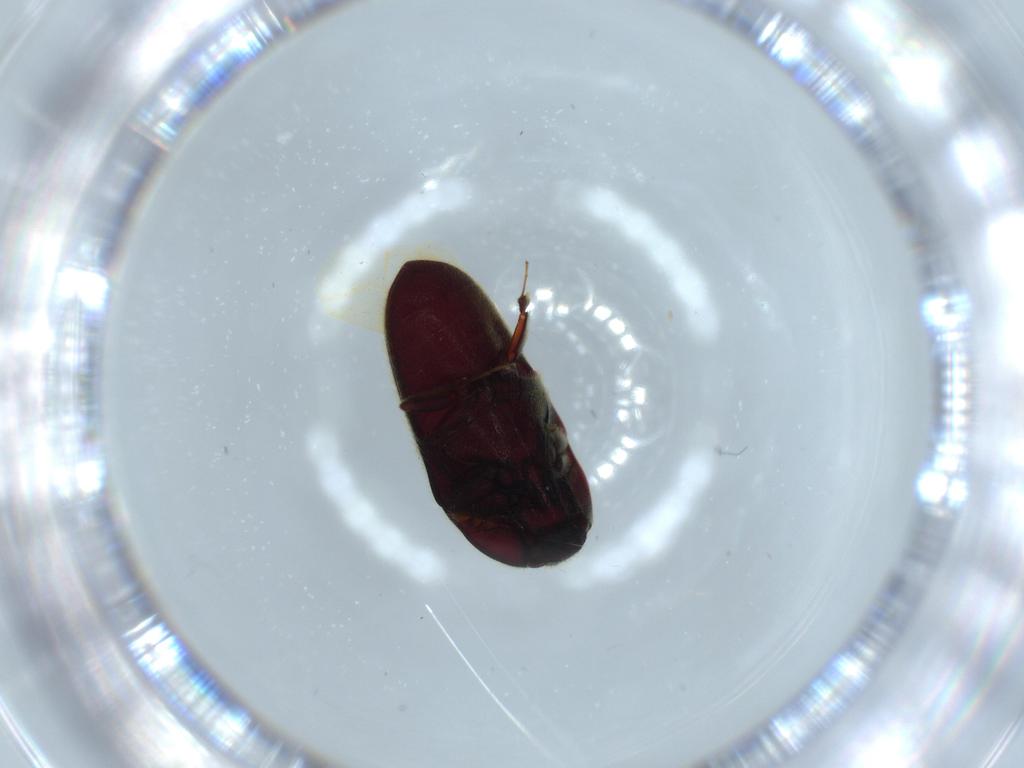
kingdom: Animalia
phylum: Arthropoda
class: Insecta
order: Coleoptera
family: Throscidae
